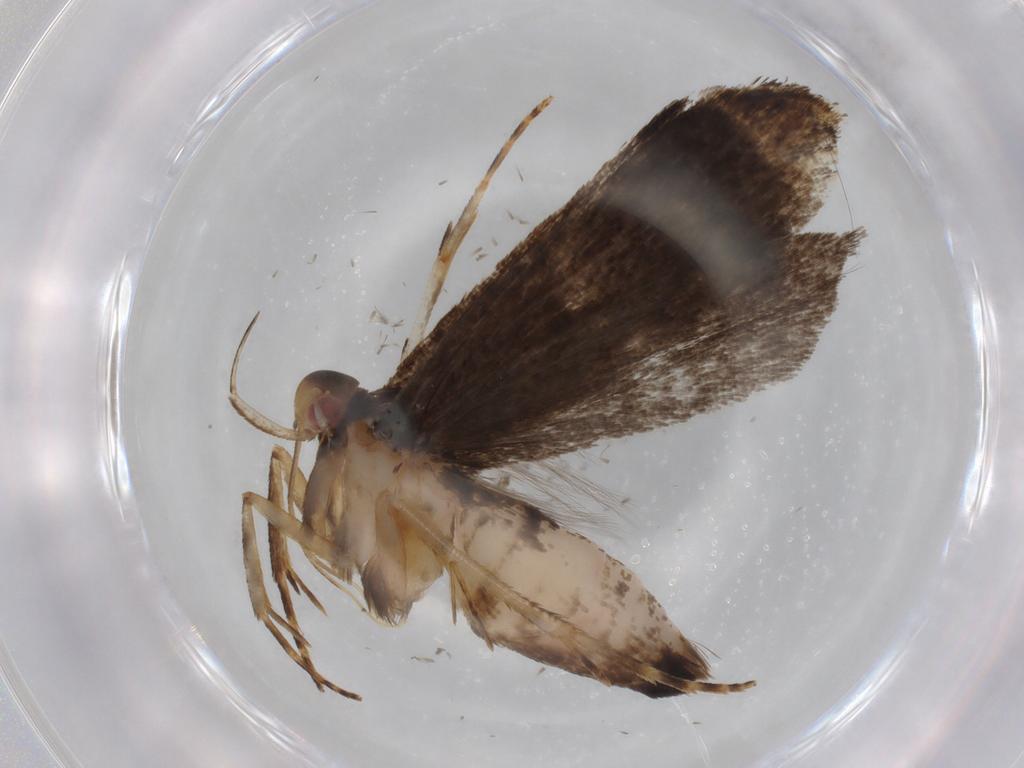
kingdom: Animalia
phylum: Arthropoda
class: Insecta
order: Lepidoptera
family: Gelechiidae
